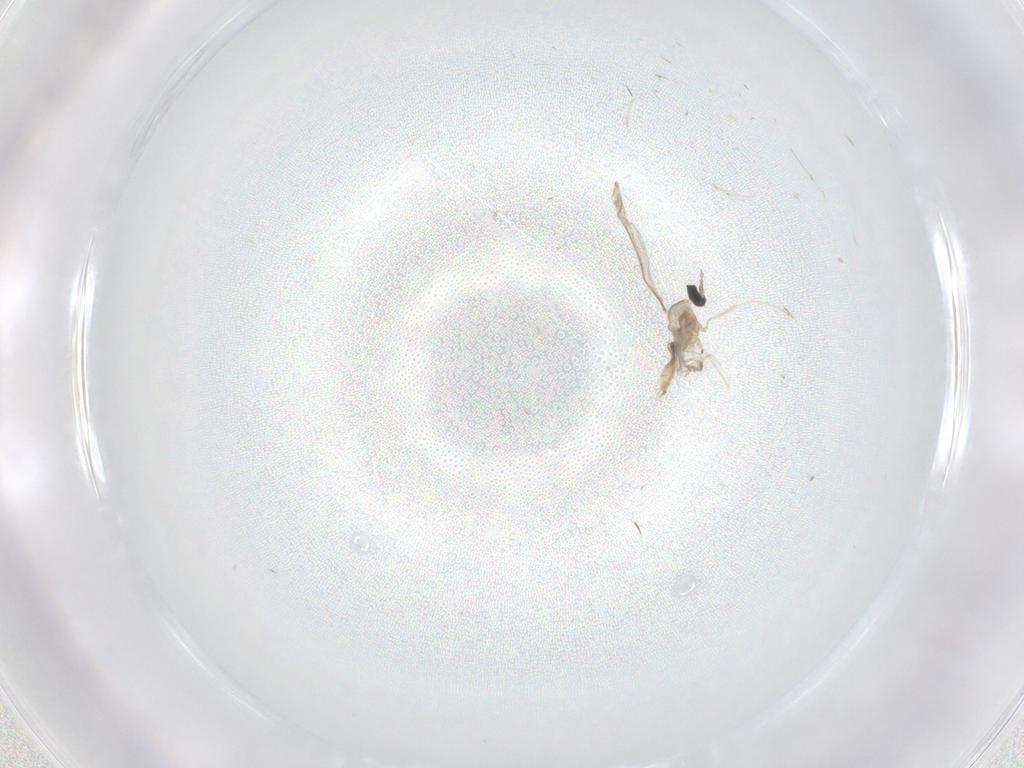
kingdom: Animalia
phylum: Arthropoda
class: Insecta
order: Diptera
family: Cecidomyiidae
